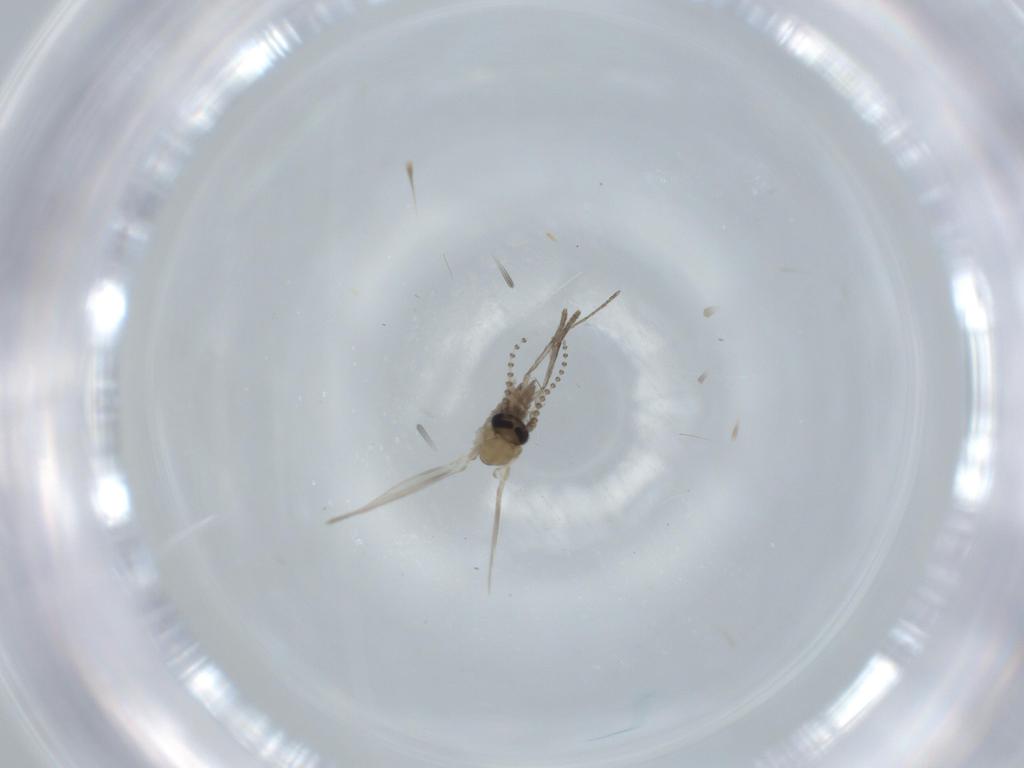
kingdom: Animalia
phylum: Arthropoda
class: Insecta
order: Diptera
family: Psychodidae
